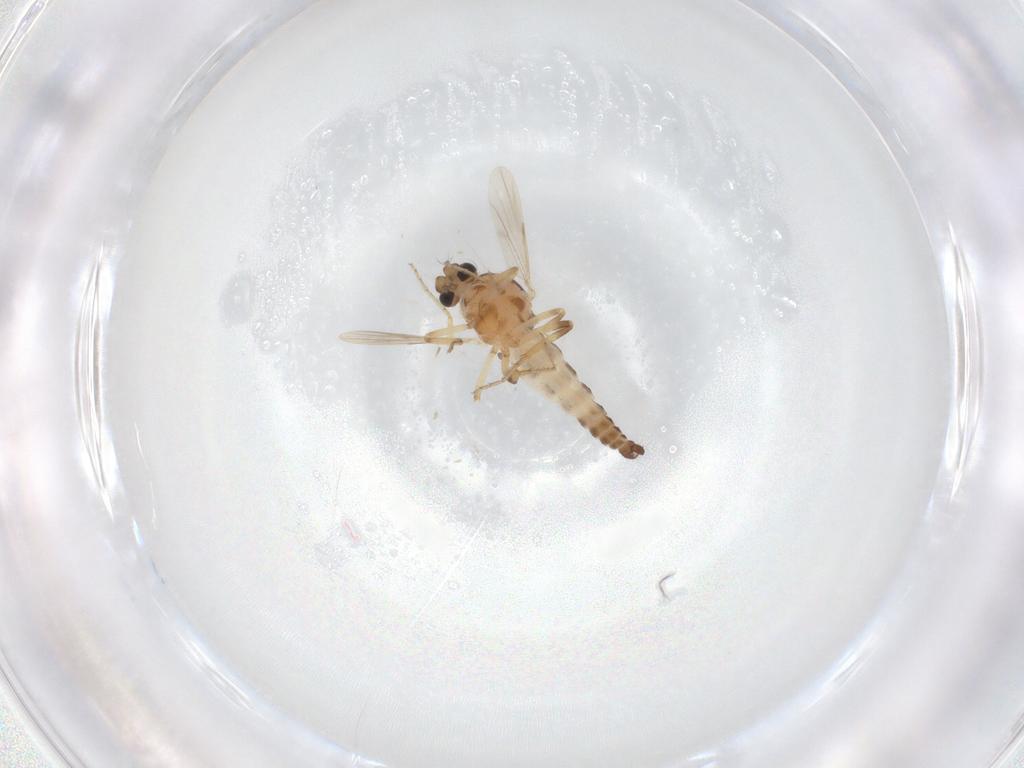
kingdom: Animalia
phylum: Arthropoda
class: Insecta
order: Diptera
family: Ceratopogonidae
